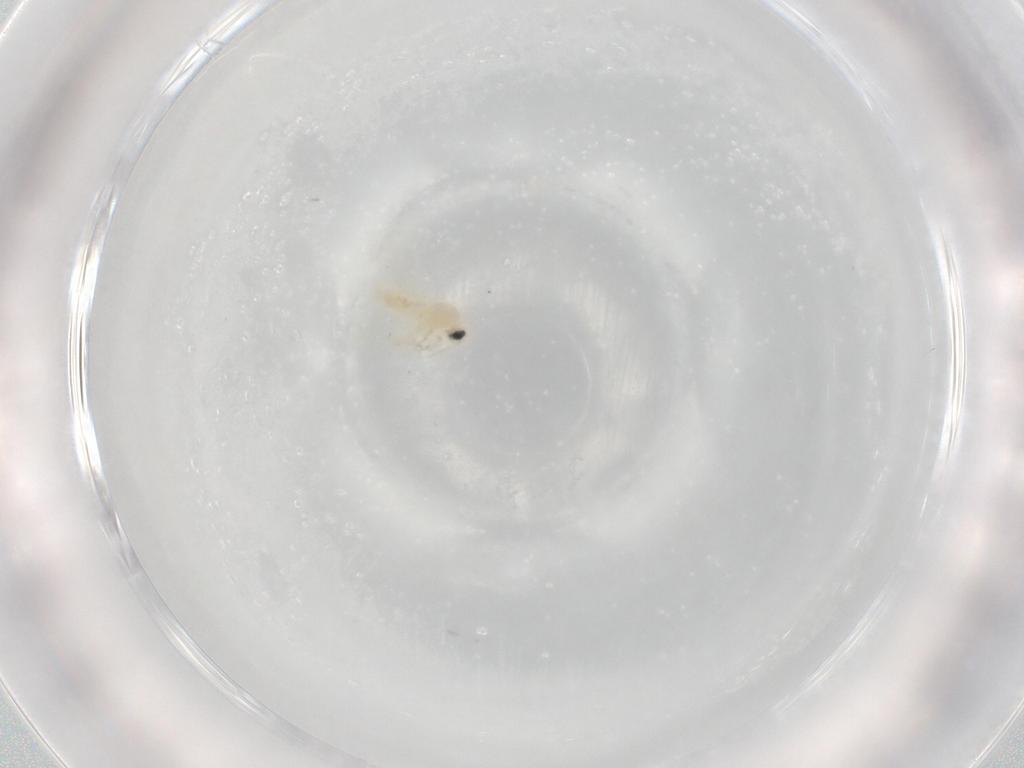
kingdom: Animalia
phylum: Arthropoda
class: Insecta
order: Hemiptera
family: Aleyrodidae
